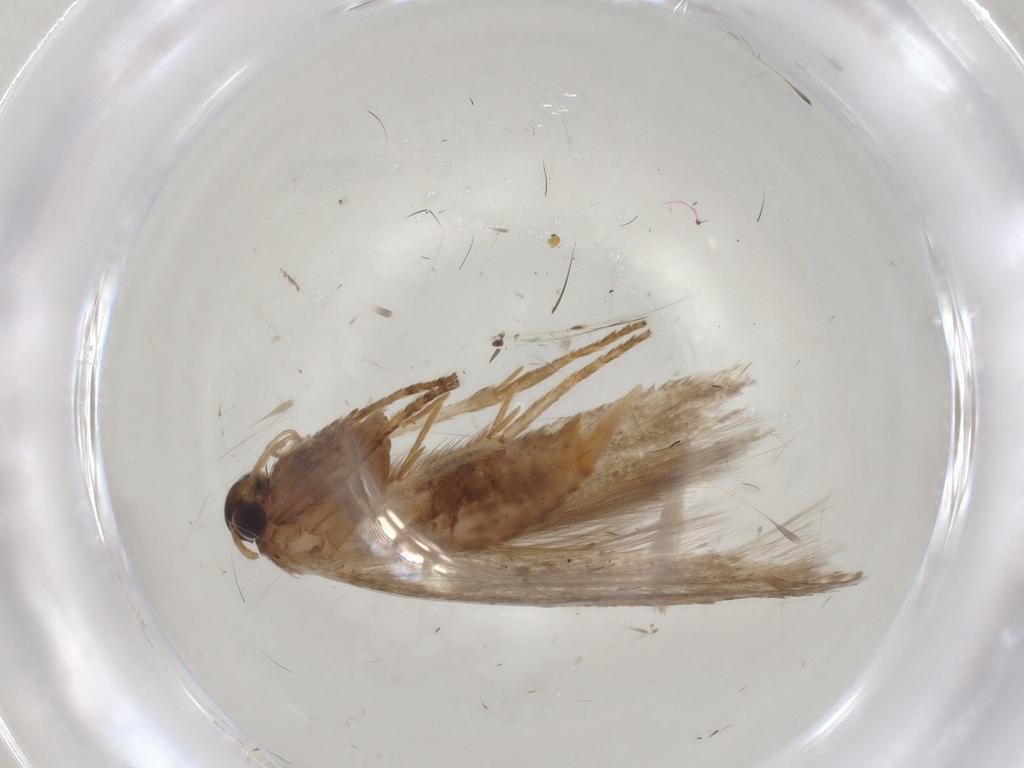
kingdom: Animalia
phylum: Arthropoda
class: Insecta
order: Lepidoptera
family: Blastobasidae
